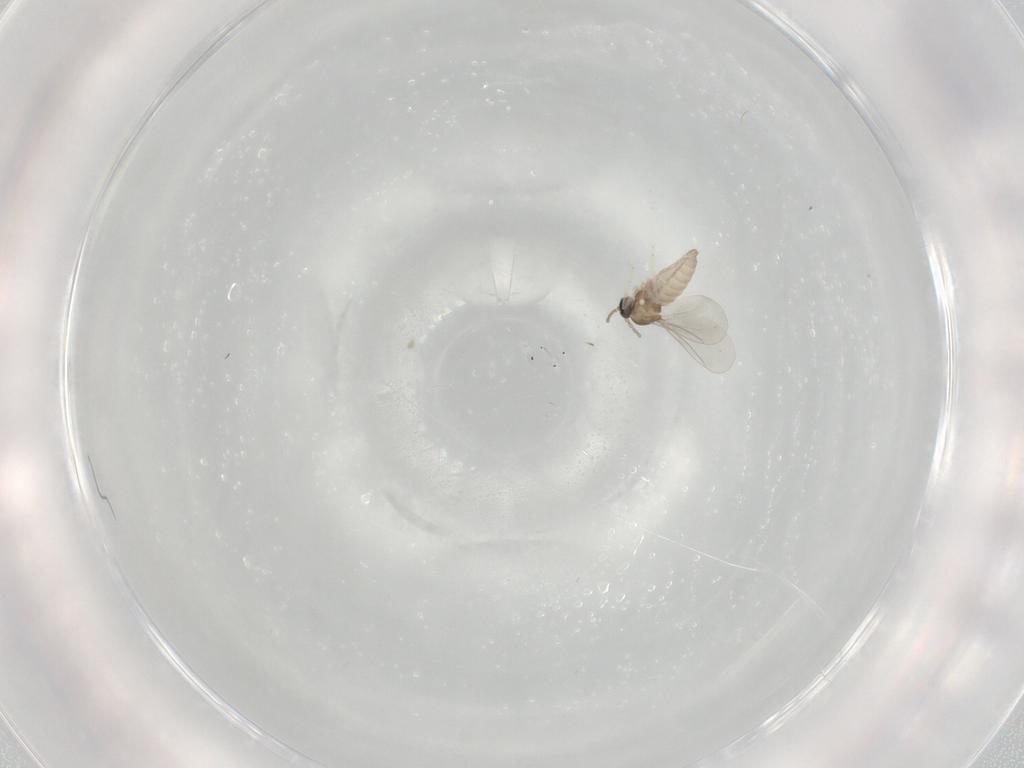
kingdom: Animalia
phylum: Arthropoda
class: Insecta
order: Diptera
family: Cecidomyiidae
